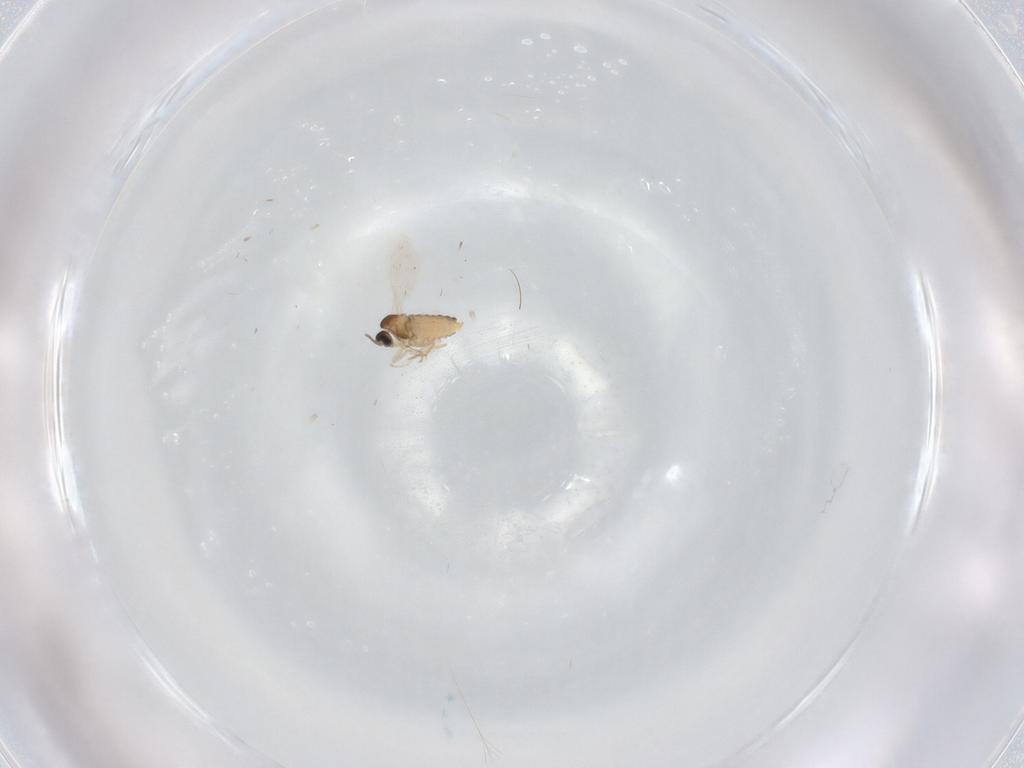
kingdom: Animalia
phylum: Arthropoda
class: Insecta
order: Diptera
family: Cecidomyiidae
